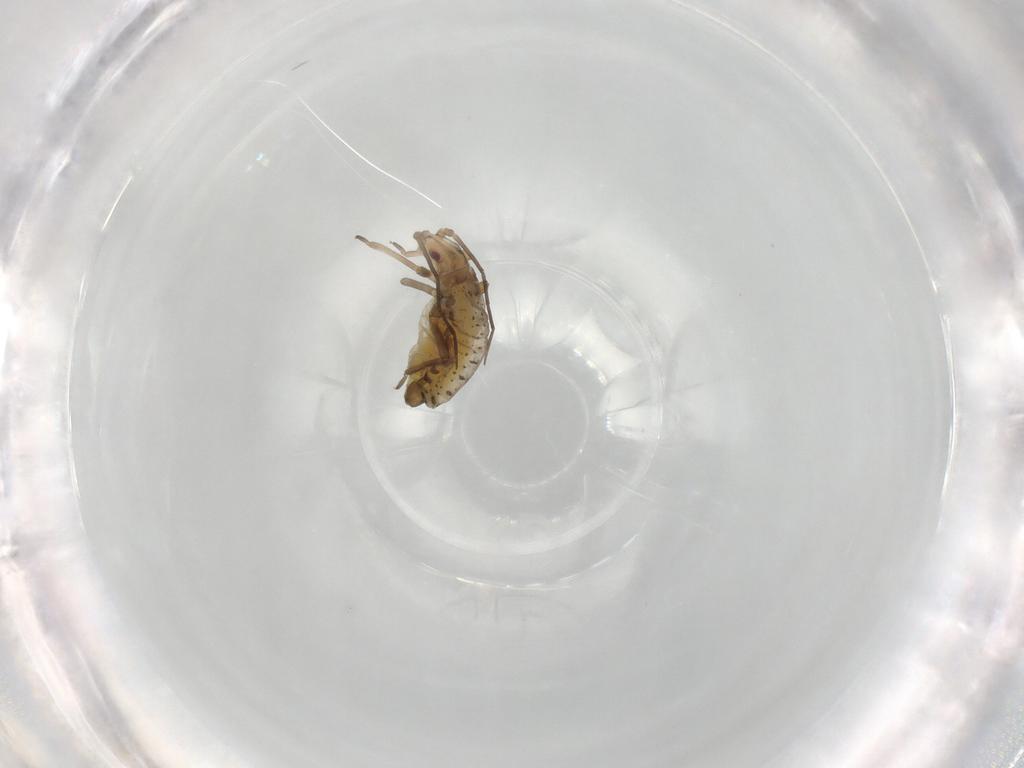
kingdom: Animalia
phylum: Arthropoda
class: Insecta
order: Hemiptera
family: Aphididae
